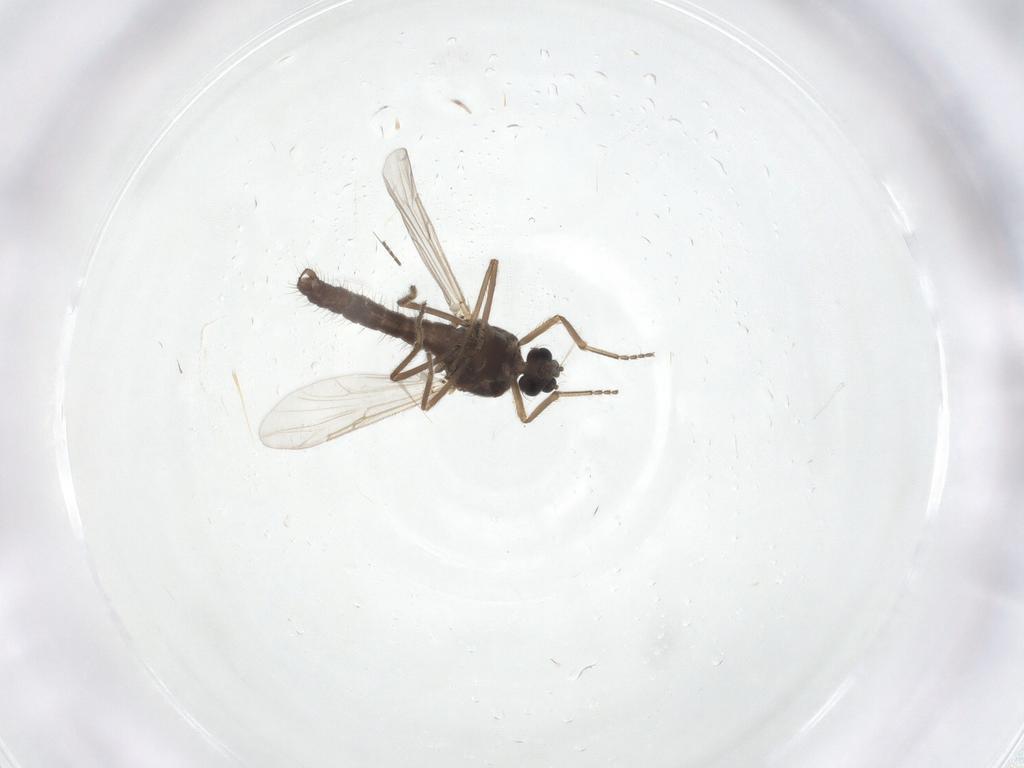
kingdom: Animalia
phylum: Arthropoda
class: Insecta
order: Diptera
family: Ceratopogonidae
